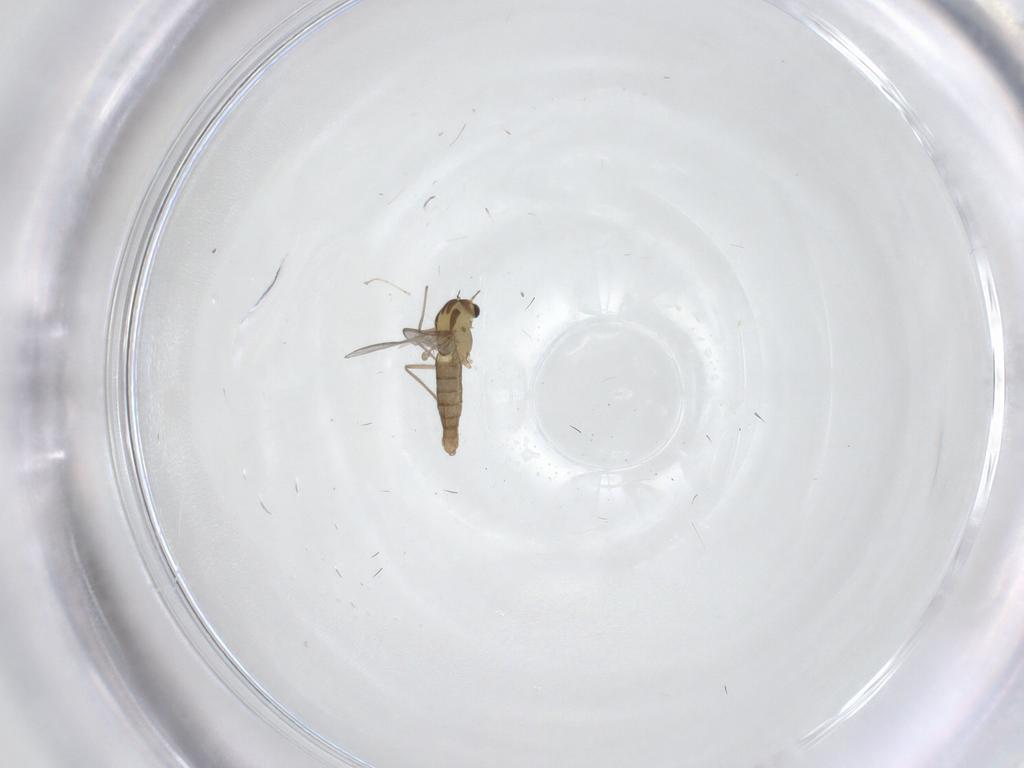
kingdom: Animalia
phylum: Arthropoda
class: Insecta
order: Diptera
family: Chironomidae
